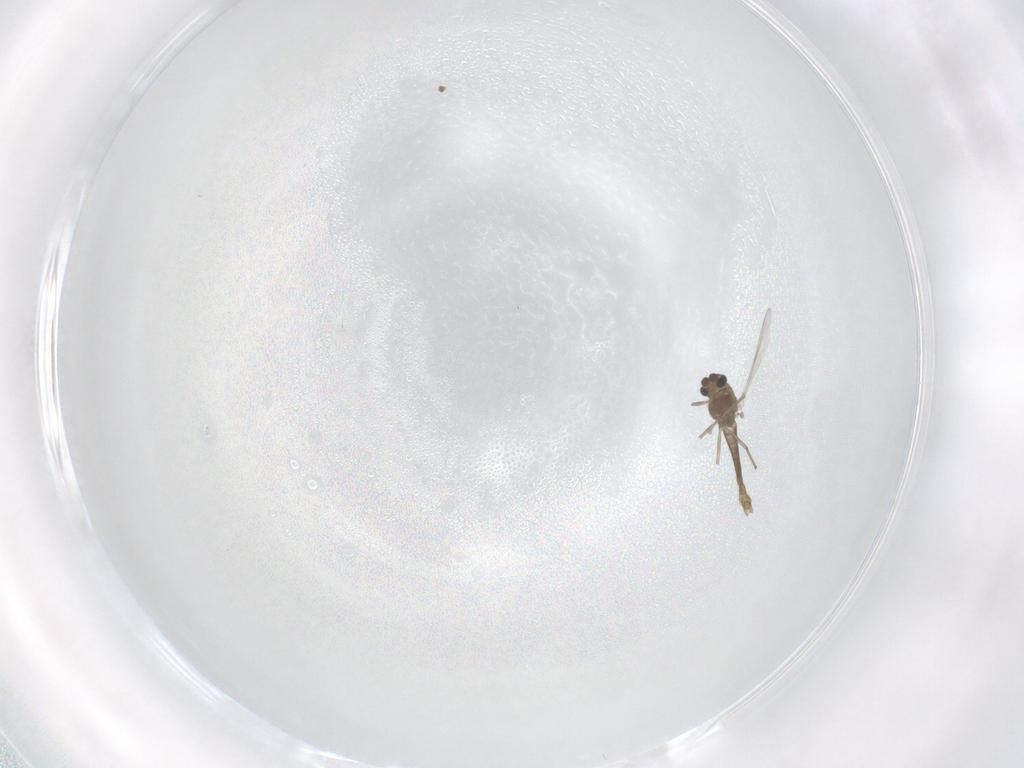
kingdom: Animalia
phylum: Arthropoda
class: Insecta
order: Diptera
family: Chironomidae
